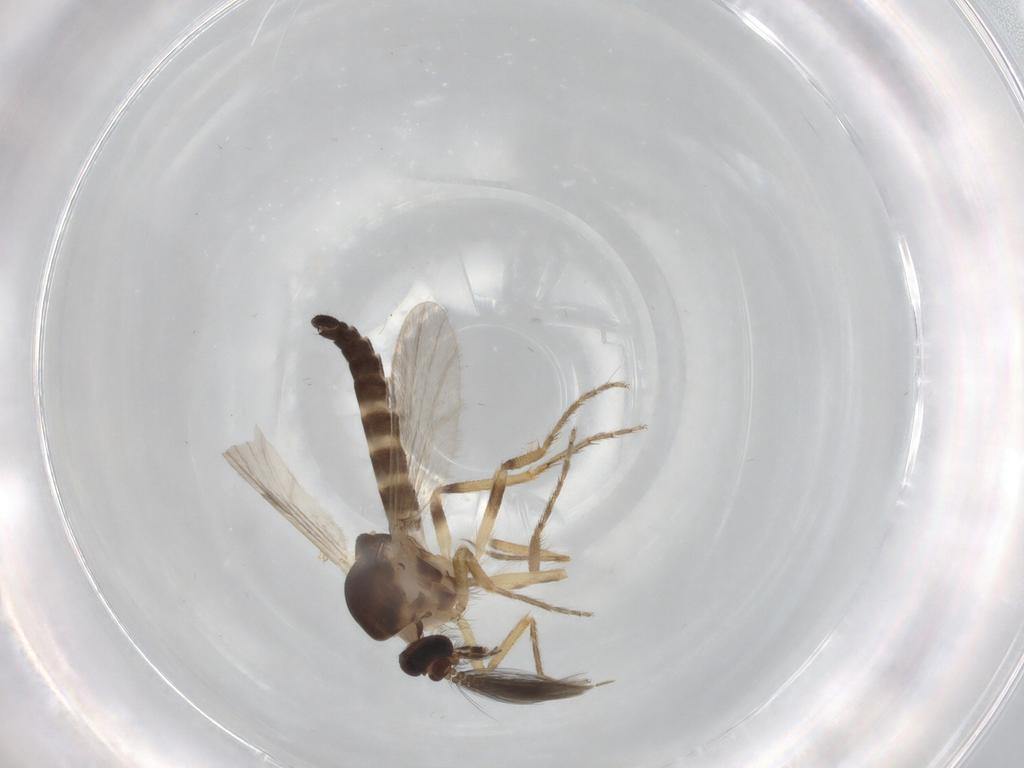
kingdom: Animalia
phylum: Arthropoda
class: Insecta
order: Diptera
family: Ceratopogonidae
